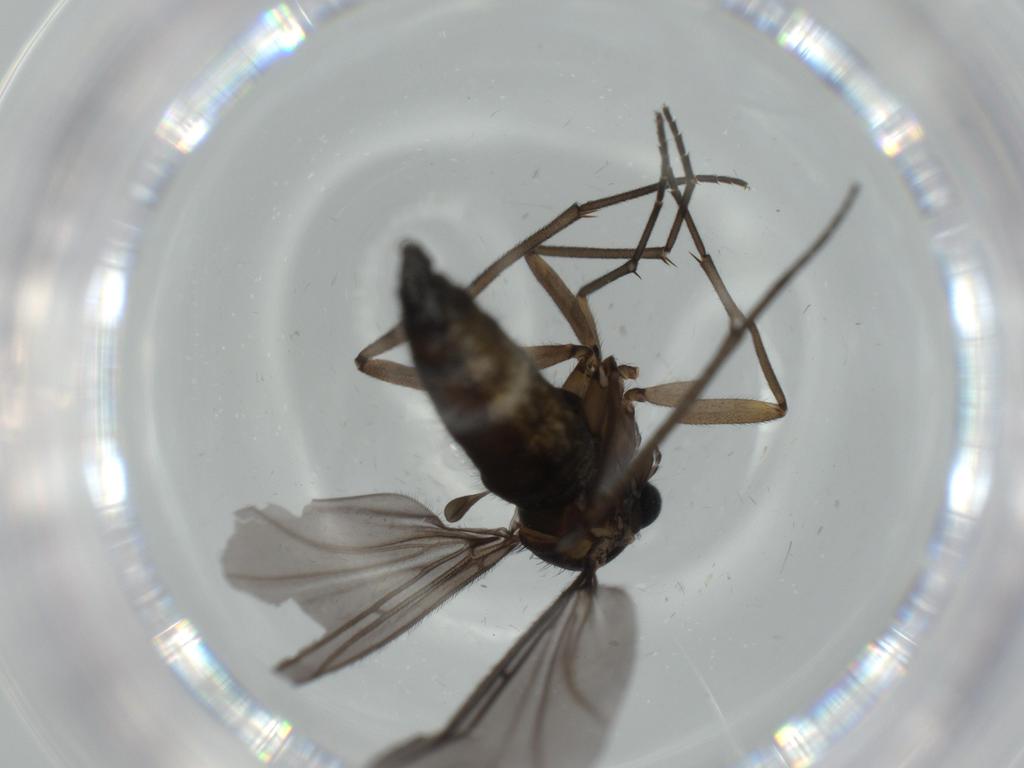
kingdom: Animalia
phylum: Arthropoda
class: Insecta
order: Diptera
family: Sciaridae
